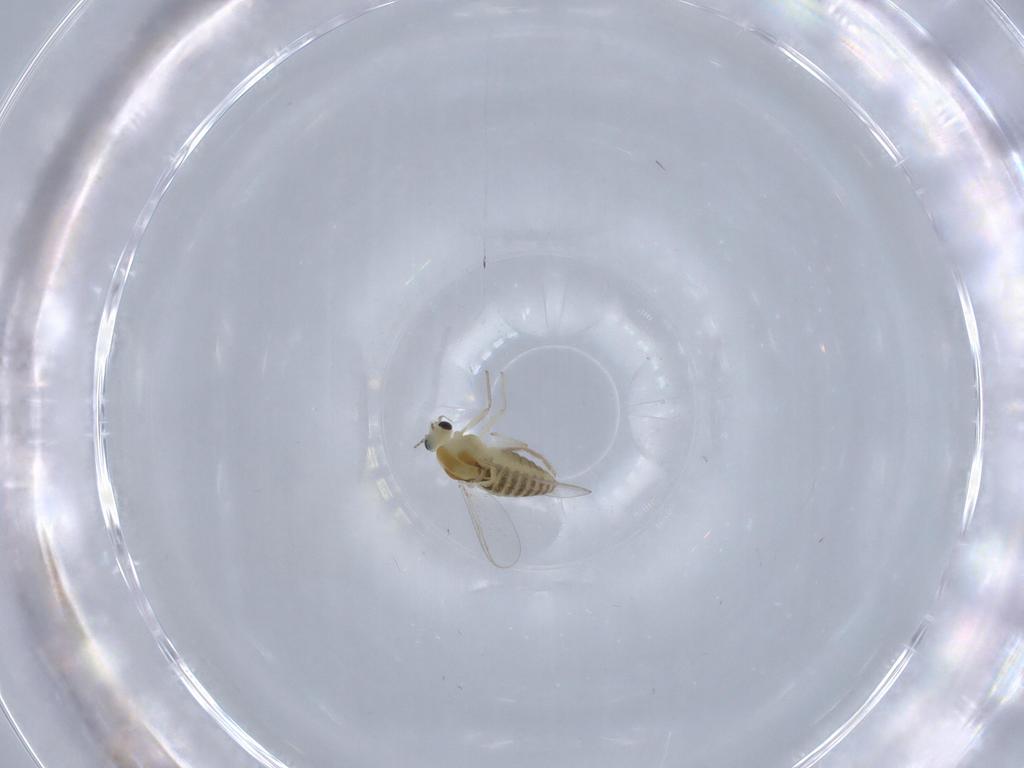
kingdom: Animalia
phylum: Arthropoda
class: Insecta
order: Diptera
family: Chironomidae
